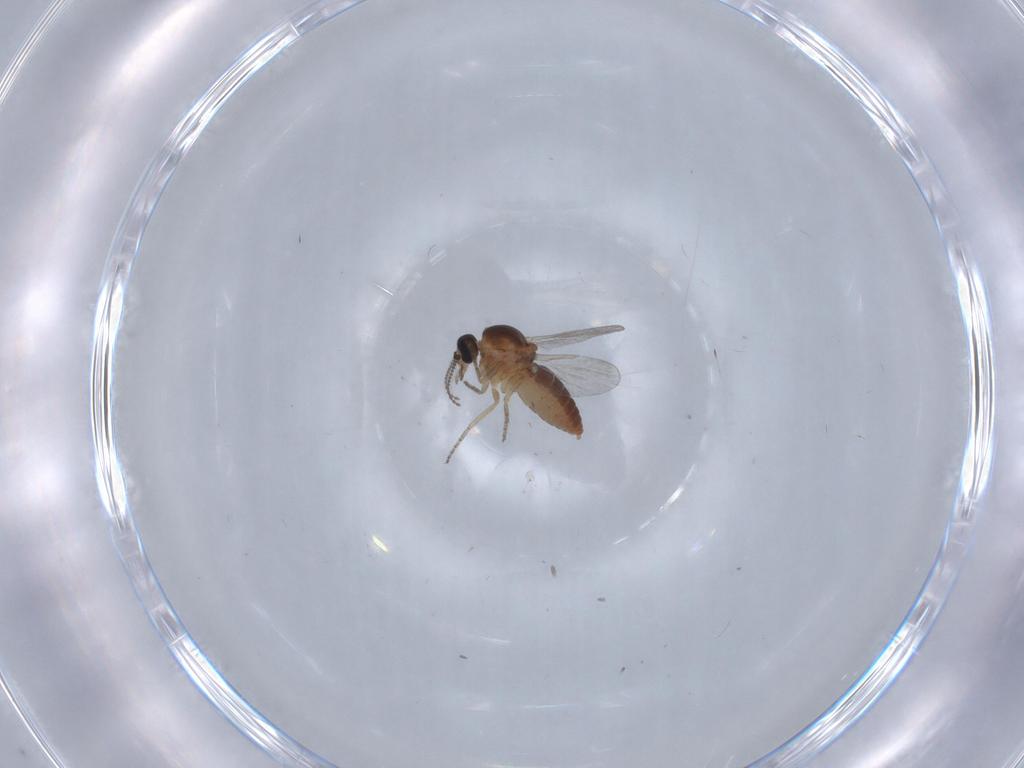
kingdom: Animalia
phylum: Arthropoda
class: Insecta
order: Diptera
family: Ceratopogonidae
